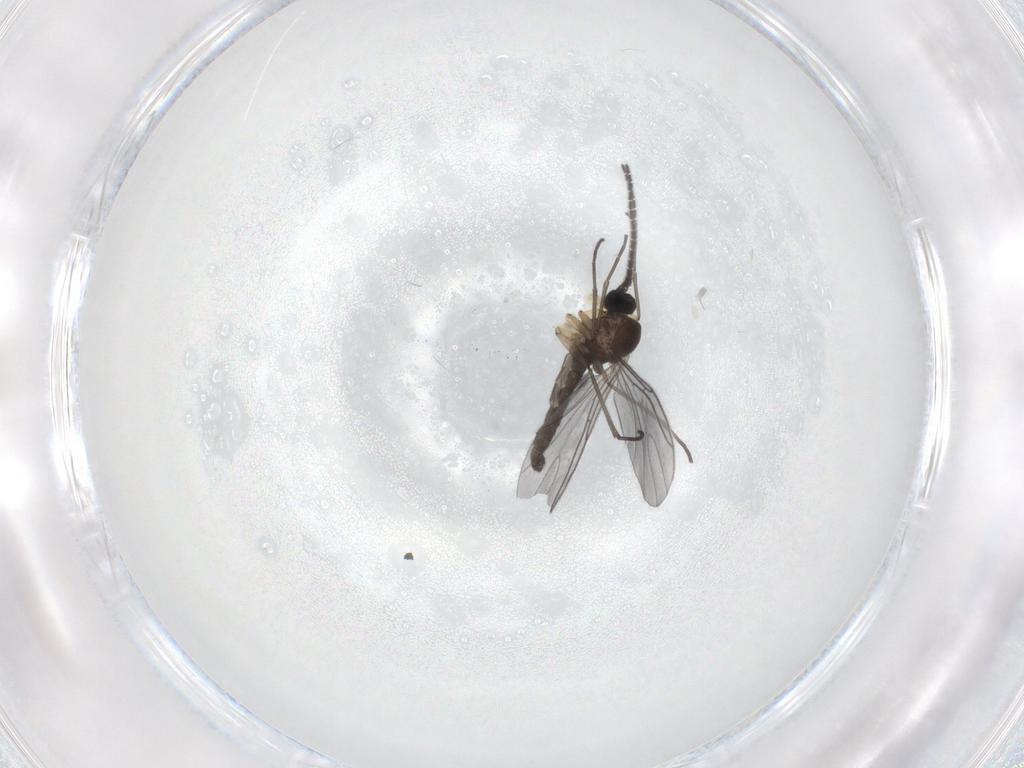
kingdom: Animalia
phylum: Arthropoda
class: Insecta
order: Diptera
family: Sciaridae
